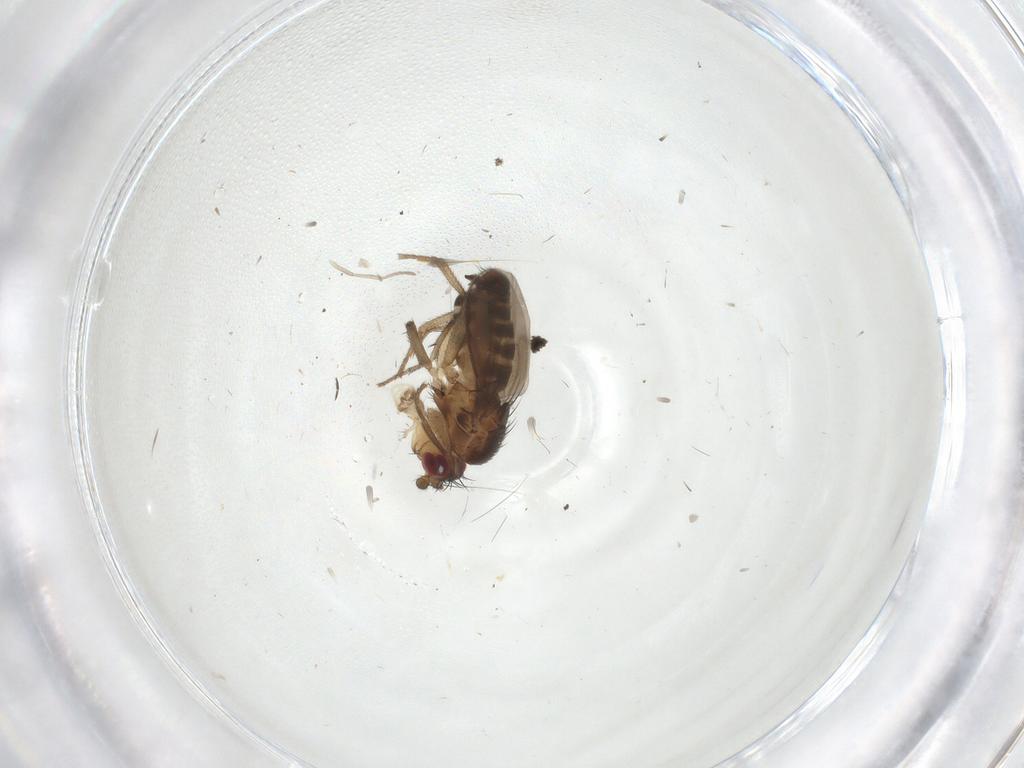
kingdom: Animalia
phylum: Arthropoda
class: Insecta
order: Diptera
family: Sphaeroceridae
